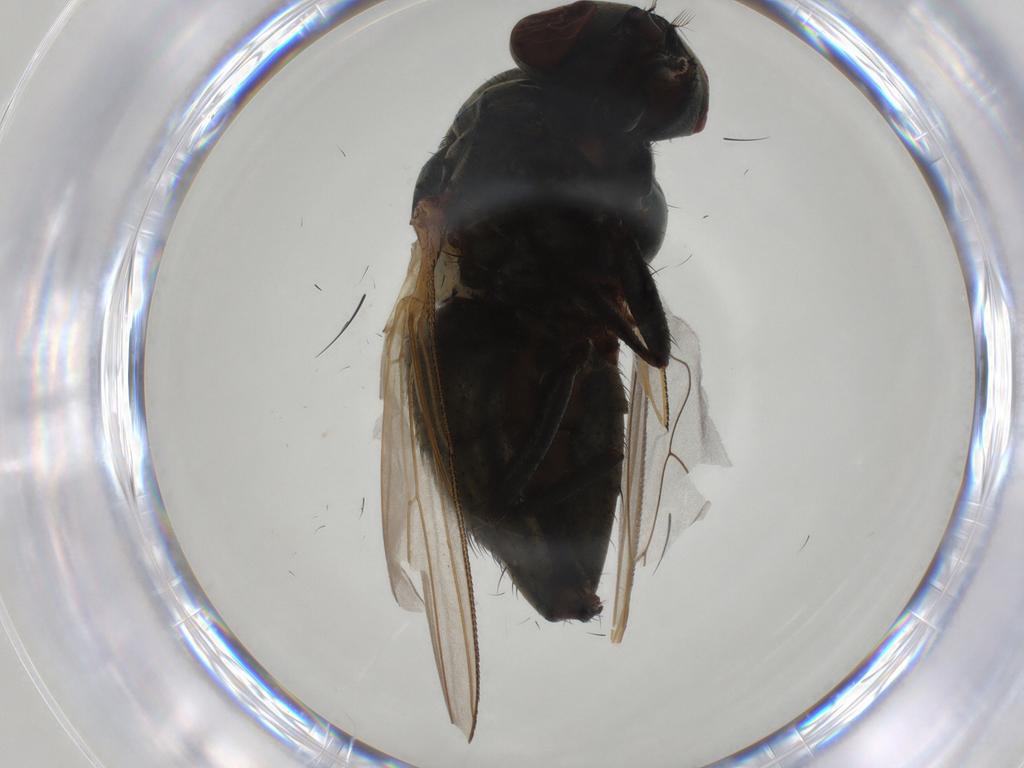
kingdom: Animalia
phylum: Arthropoda
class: Insecta
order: Diptera
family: Muscidae
